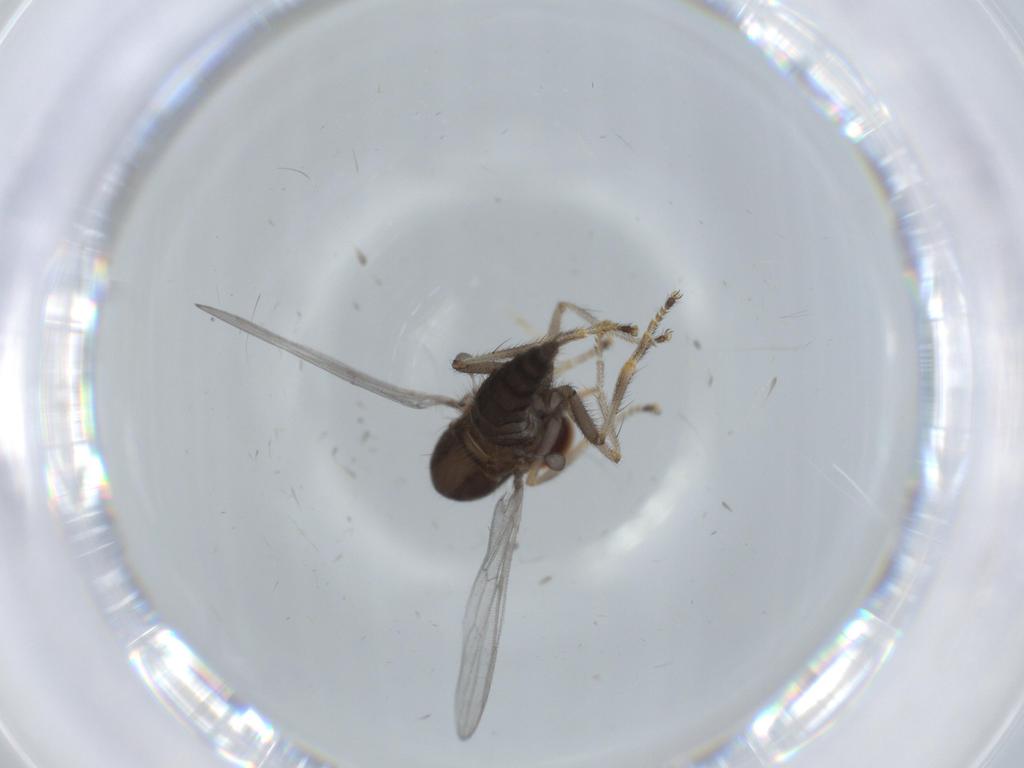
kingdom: Animalia
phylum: Arthropoda
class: Insecta
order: Diptera
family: Hybotidae
